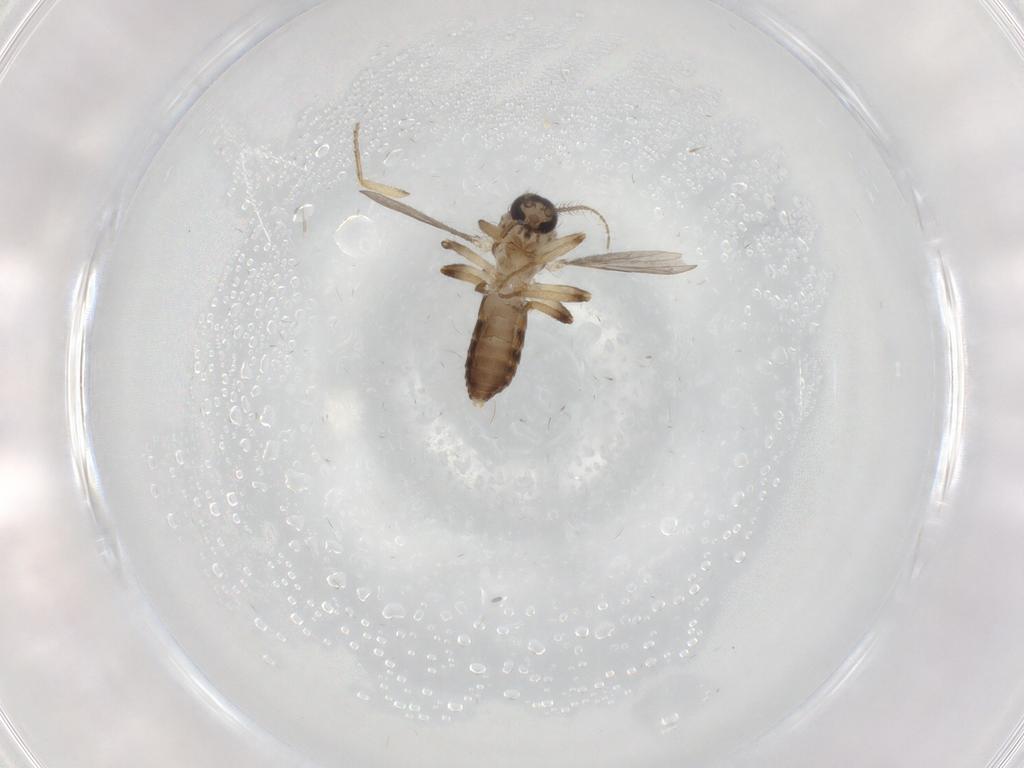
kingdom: Animalia
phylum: Arthropoda
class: Insecta
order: Diptera
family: Ceratopogonidae
